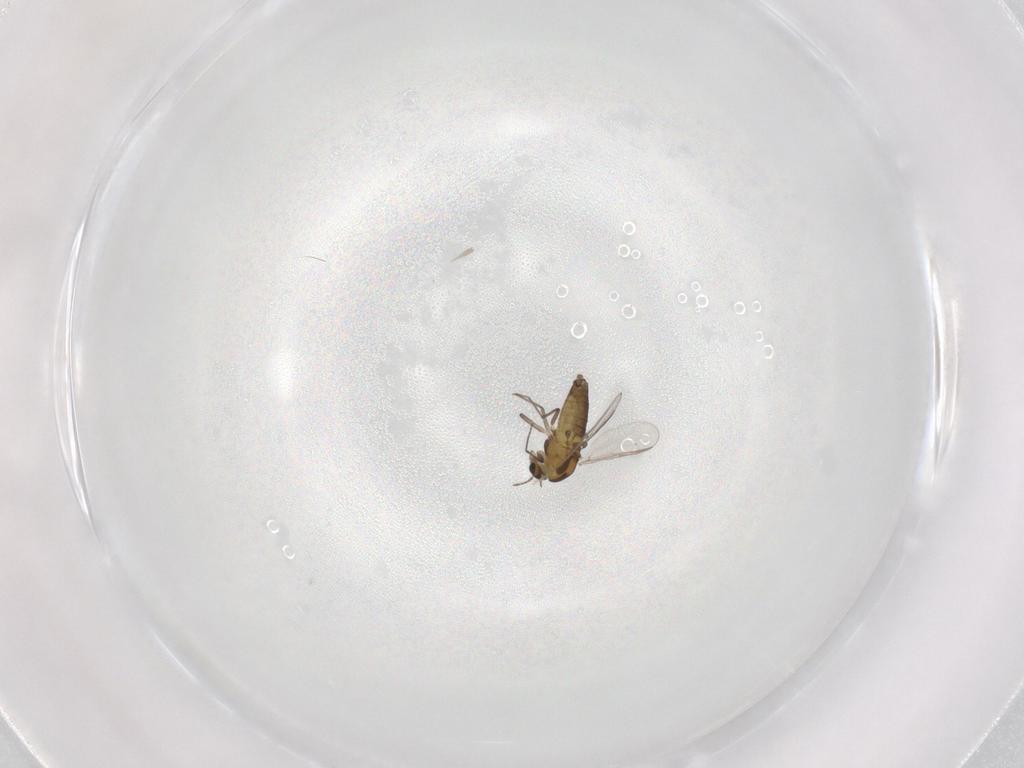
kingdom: Animalia
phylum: Arthropoda
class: Insecta
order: Diptera
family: Chironomidae
